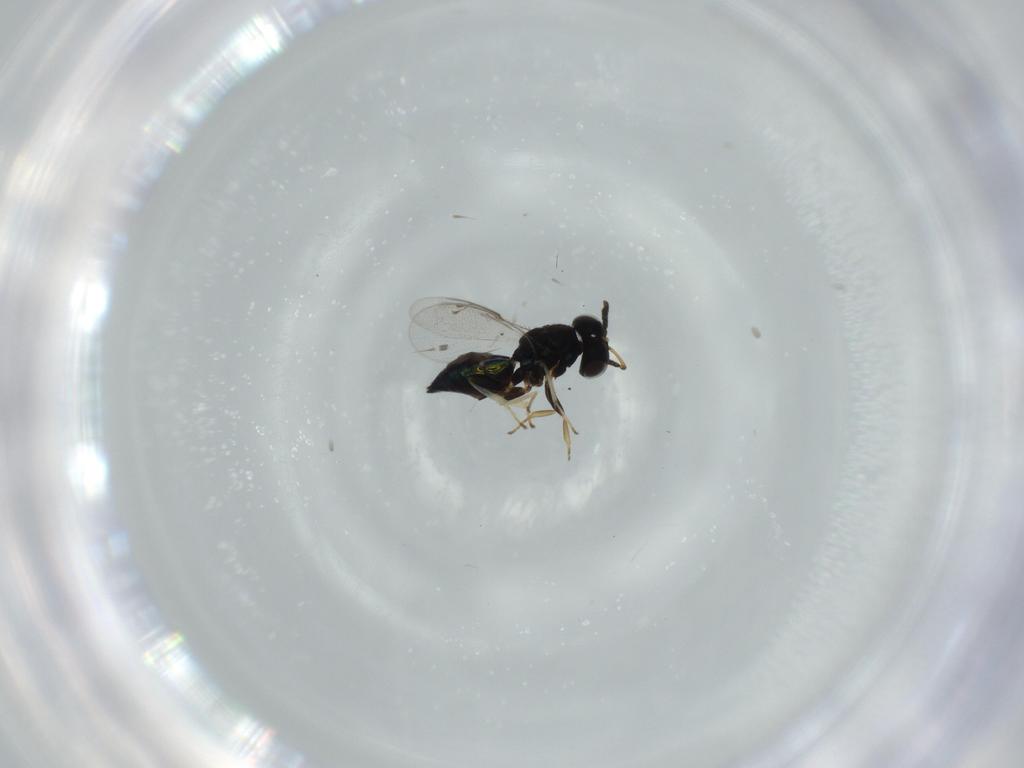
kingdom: Animalia
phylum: Arthropoda
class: Insecta
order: Hymenoptera
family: Pteromalidae
